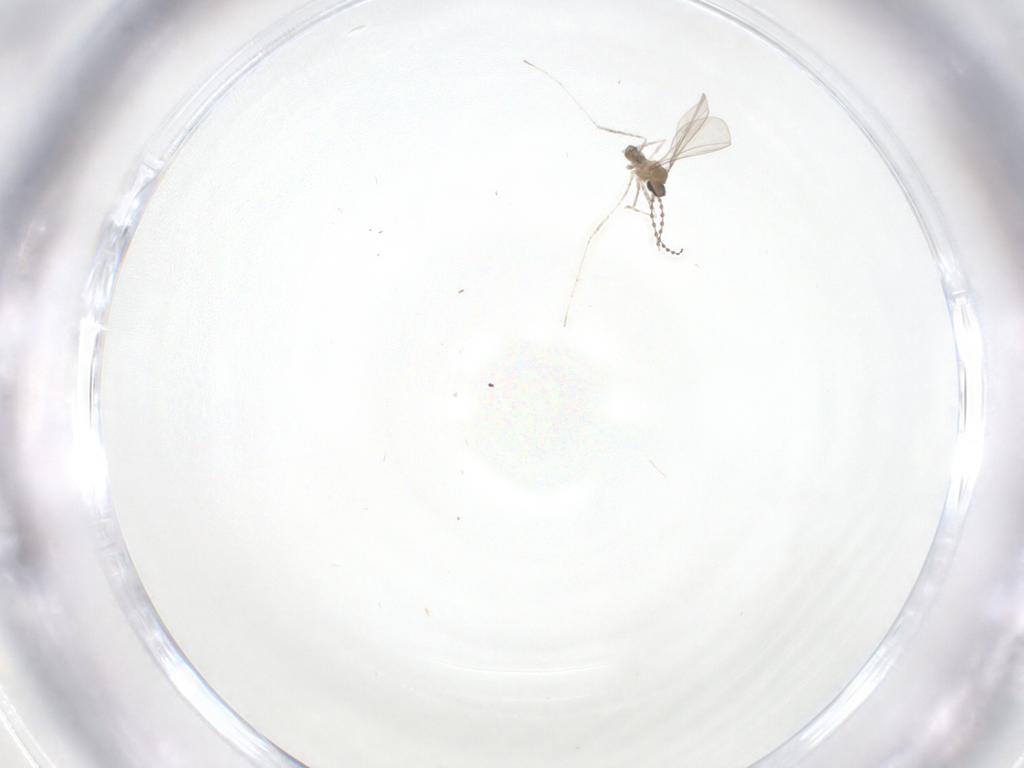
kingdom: Animalia
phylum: Arthropoda
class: Insecta
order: Diptera
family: Cecidomyiidae
